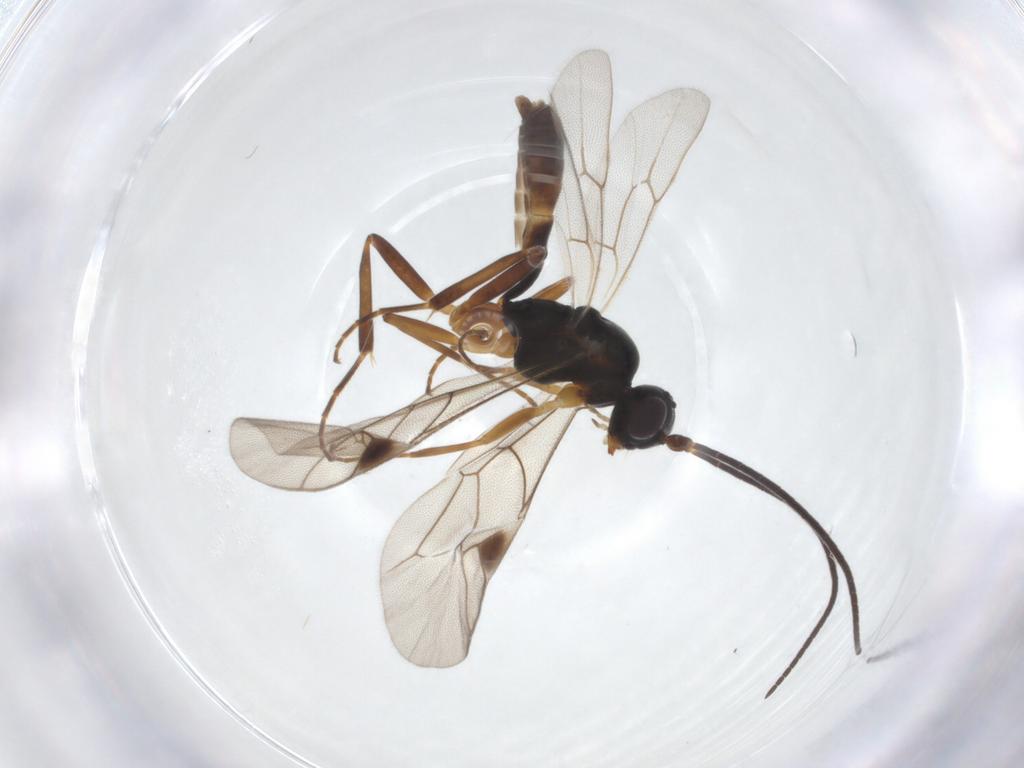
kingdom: Animalia
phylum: Arthropoda
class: Insecta
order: Hymenoptera
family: Ichneumonidae
